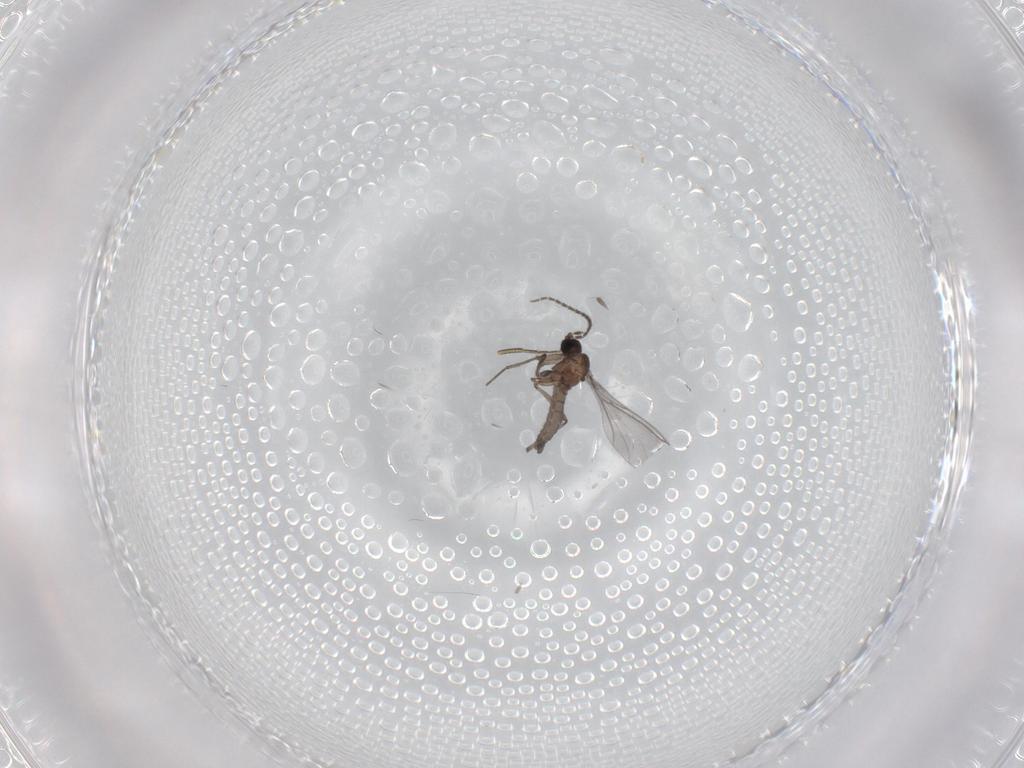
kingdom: Animalia
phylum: Arthropoda
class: Insecta
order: Diptera
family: Sciaridae
